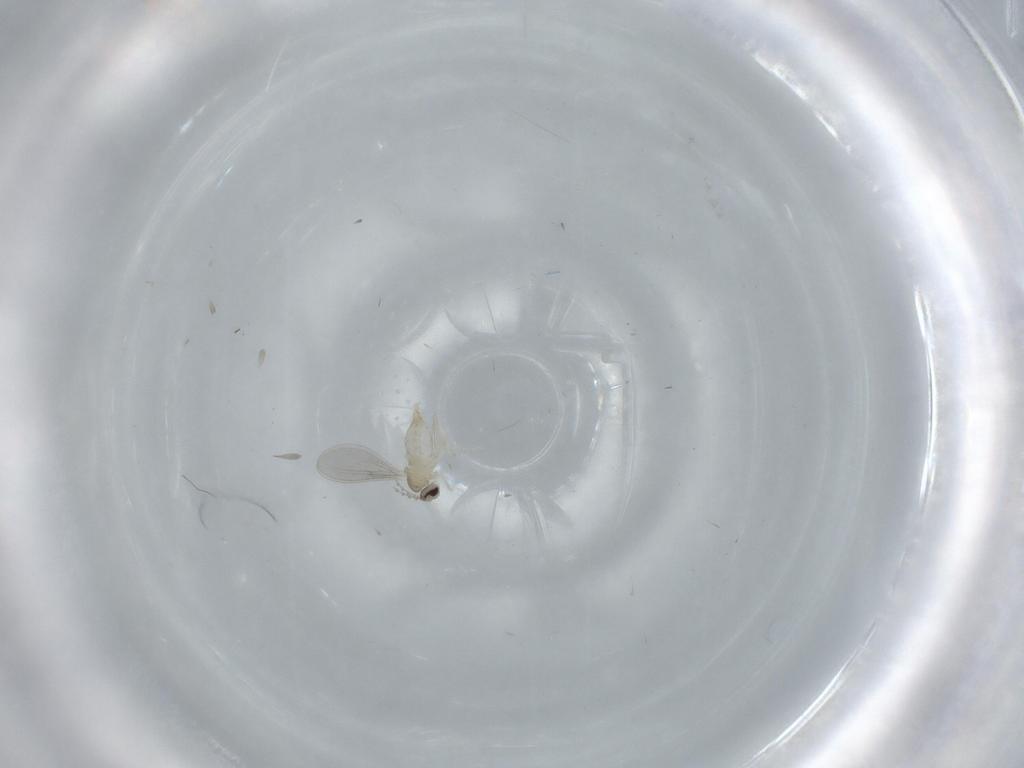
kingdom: Animalia
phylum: Arthropoda
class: Insecta
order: Diptera
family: Cecidomyiidae
